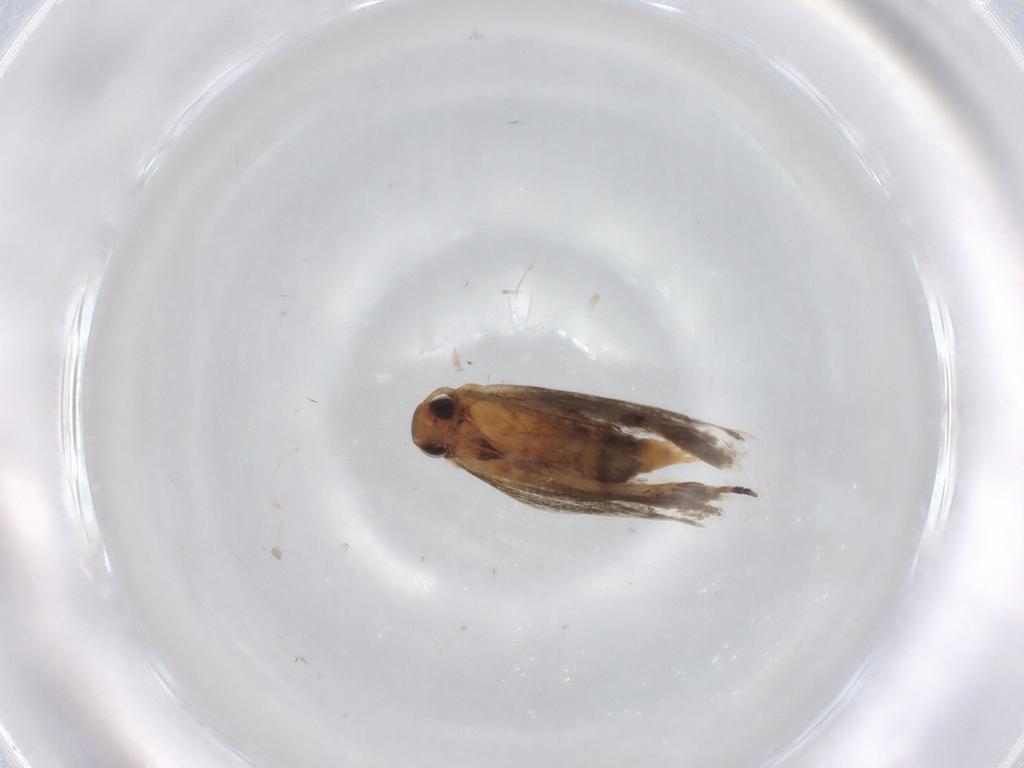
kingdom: Animalia
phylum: Arthropoda
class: Insecta
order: Lepidoptera
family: Gelechiidae
